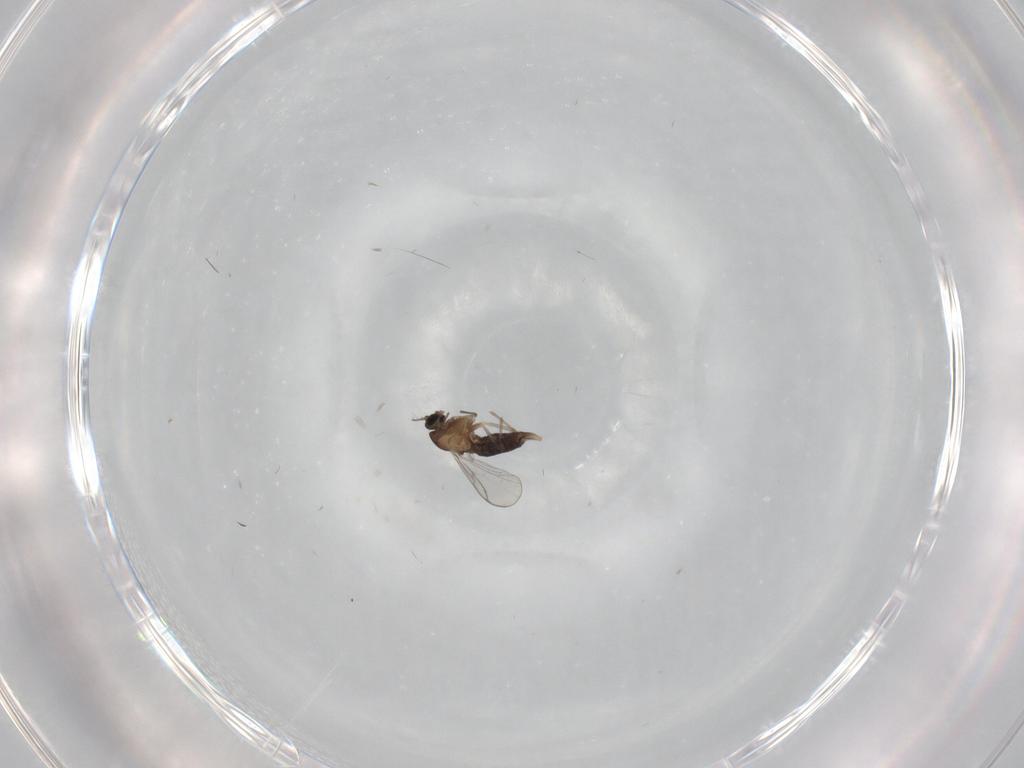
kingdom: Animalia
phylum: Arthropoda
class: Insecta
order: Diptera
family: Chironomidae
